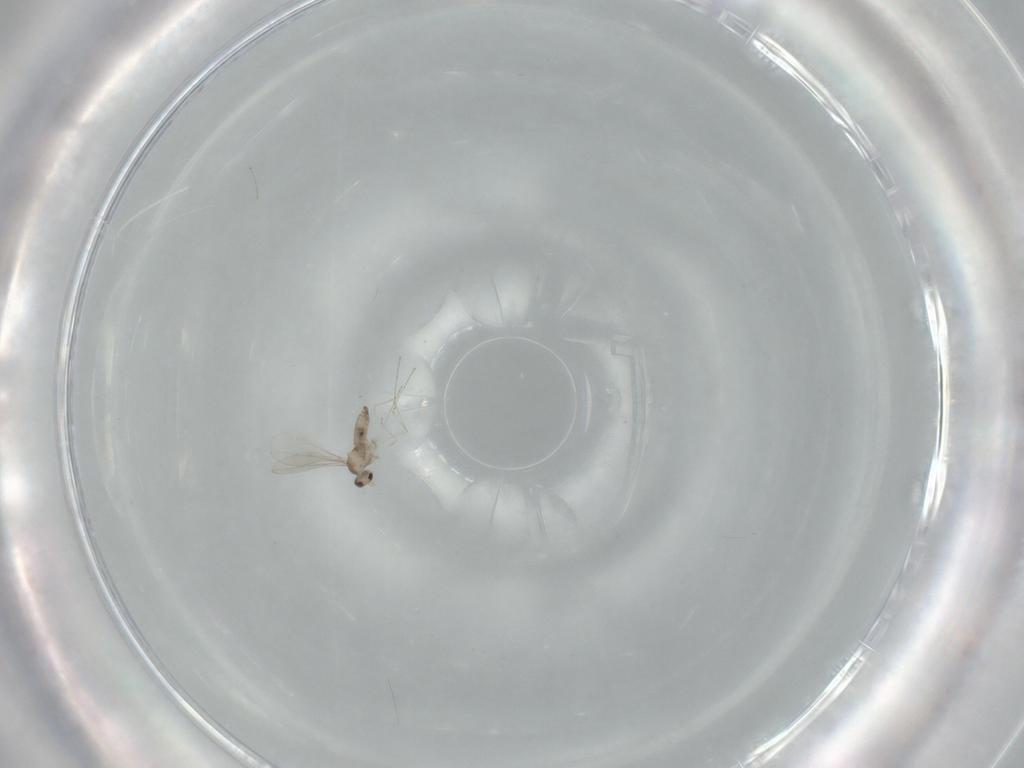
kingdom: Animalia
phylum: Arthropoda
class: Insecta
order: Diptera
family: Cecidomyiidae
